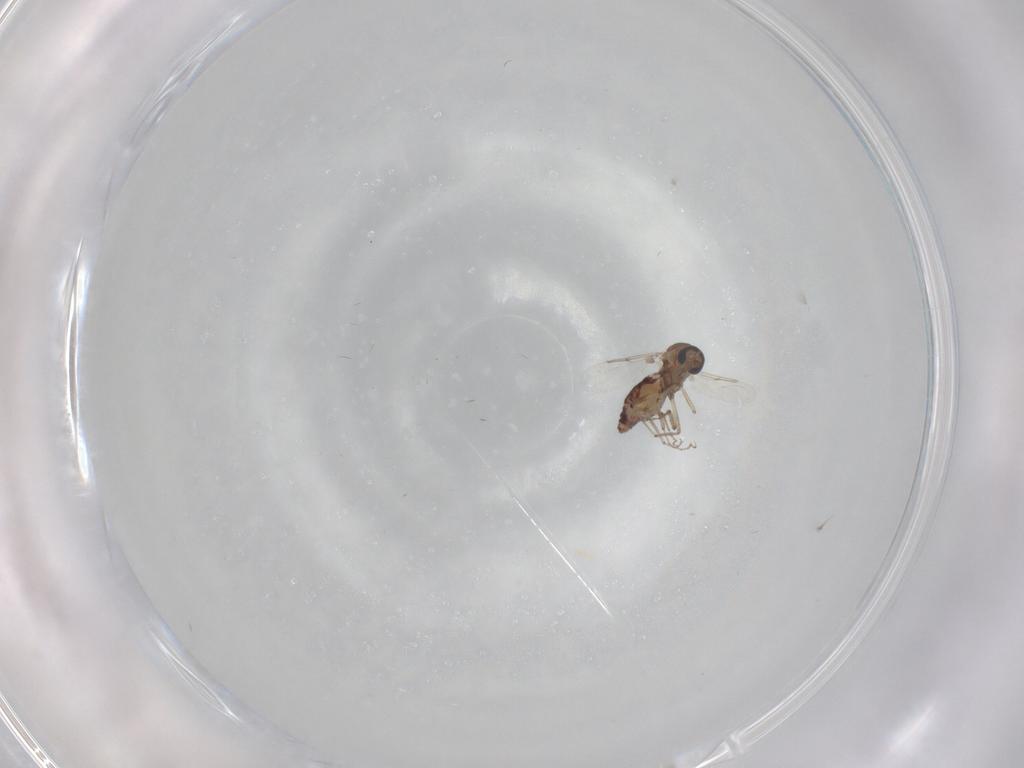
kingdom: Animalia
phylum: Arthropoda
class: Insecta
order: Diptera
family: Ceratopogonidae
